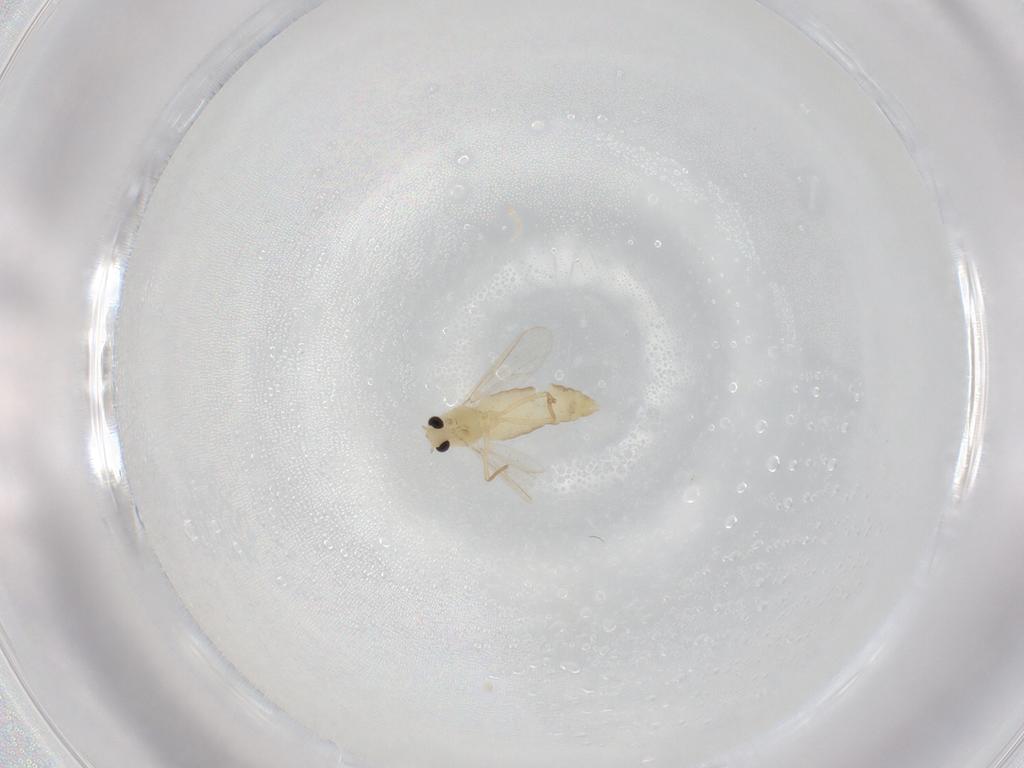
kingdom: Animalia
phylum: Arthropoda
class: Insecta
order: Diptera
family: Chironomidae
